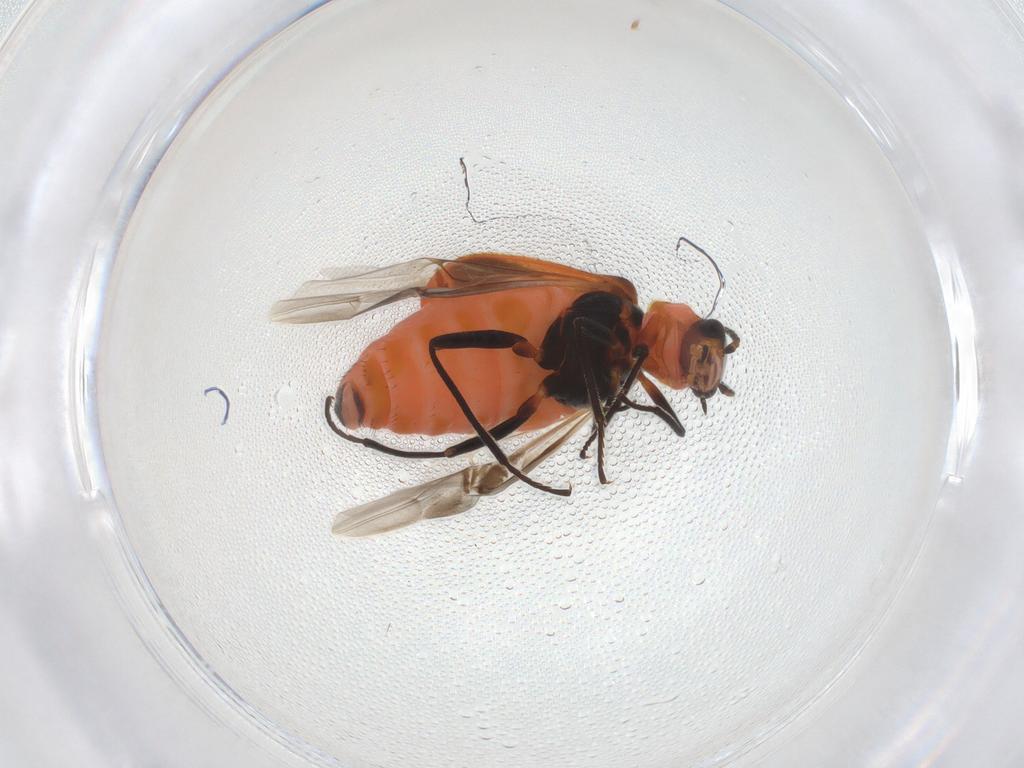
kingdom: Animalia
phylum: Arthropoda
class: Insecta
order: Coleoptera
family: Melyridae
